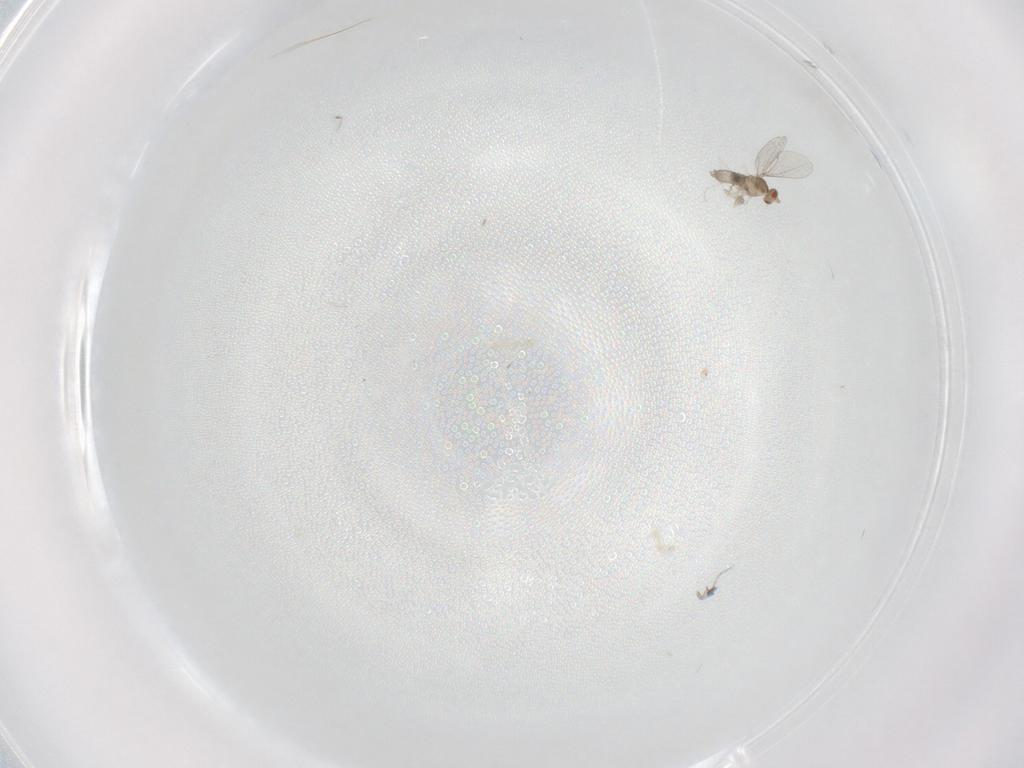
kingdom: Animalia
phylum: Arthropoda
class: Insecta
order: Diptera
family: Cecidomyiidae
